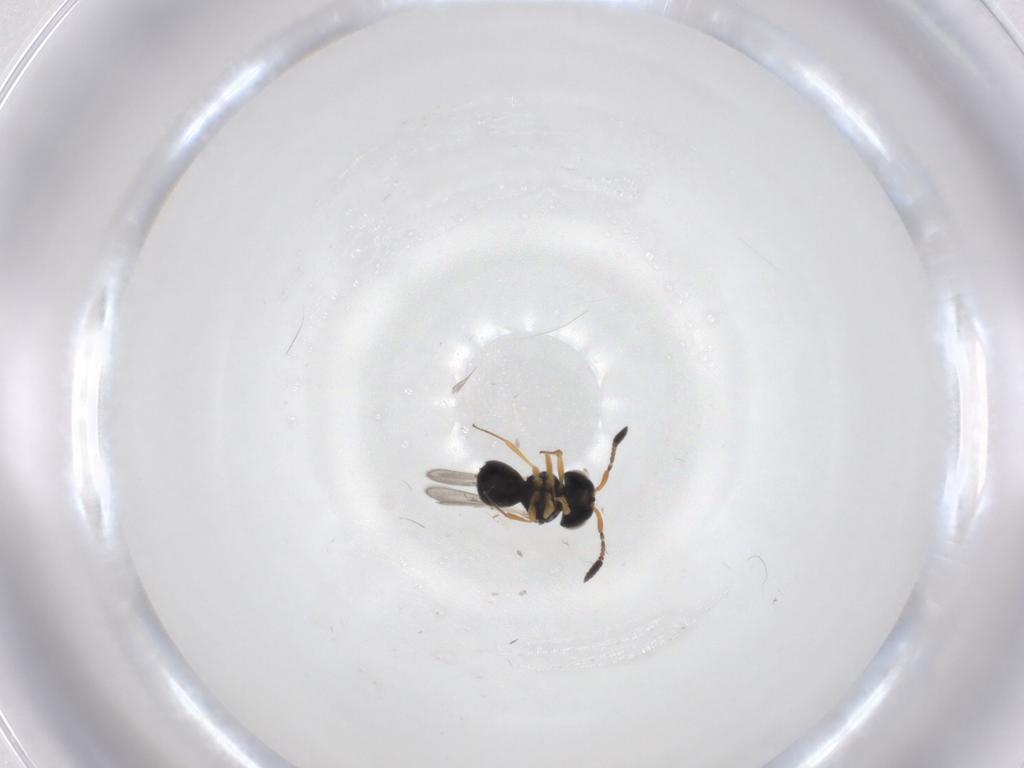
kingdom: Animalia
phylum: Arthropoda
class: Insecta
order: Hymenoptera
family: Scelionidae
